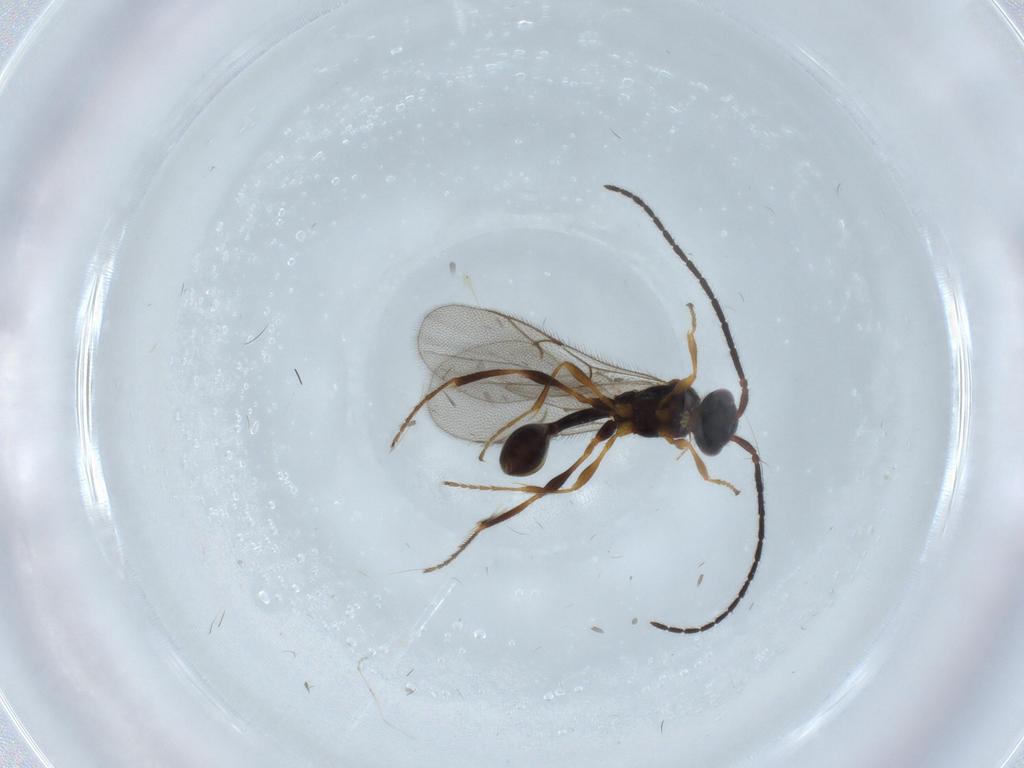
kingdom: Animalia
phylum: Arthropoda
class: Insecta
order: Hymenoptera
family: Diapriidae
